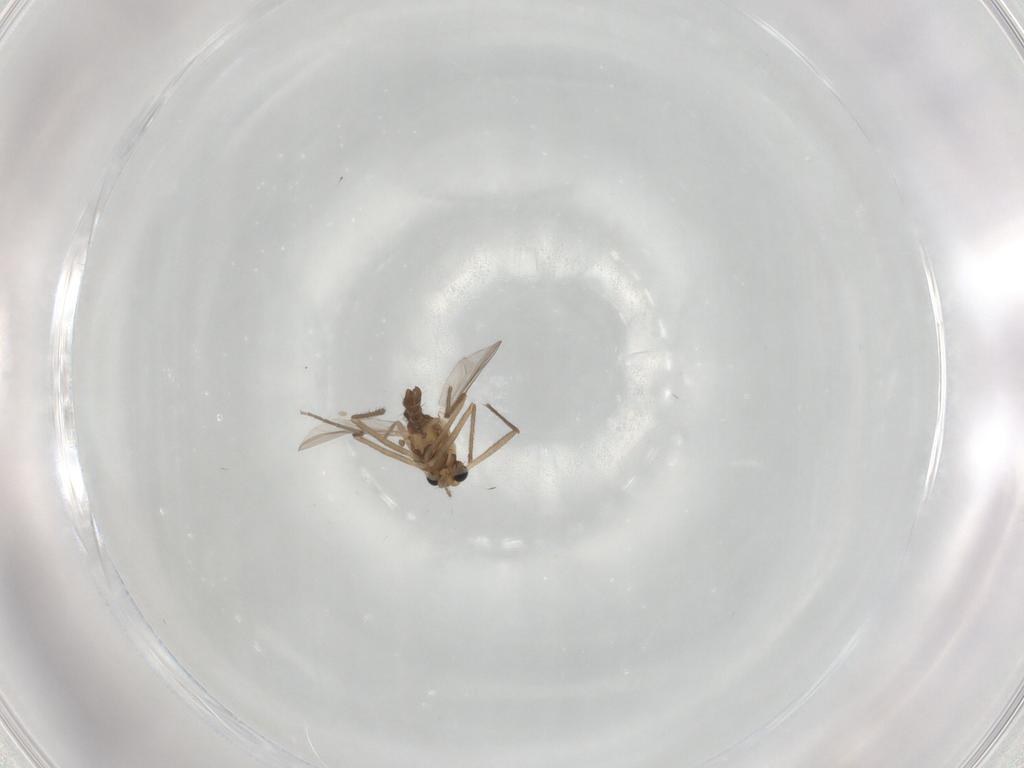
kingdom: Animalia
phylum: Arthropoda
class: Insecta
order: Diptera
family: Chironomidae
